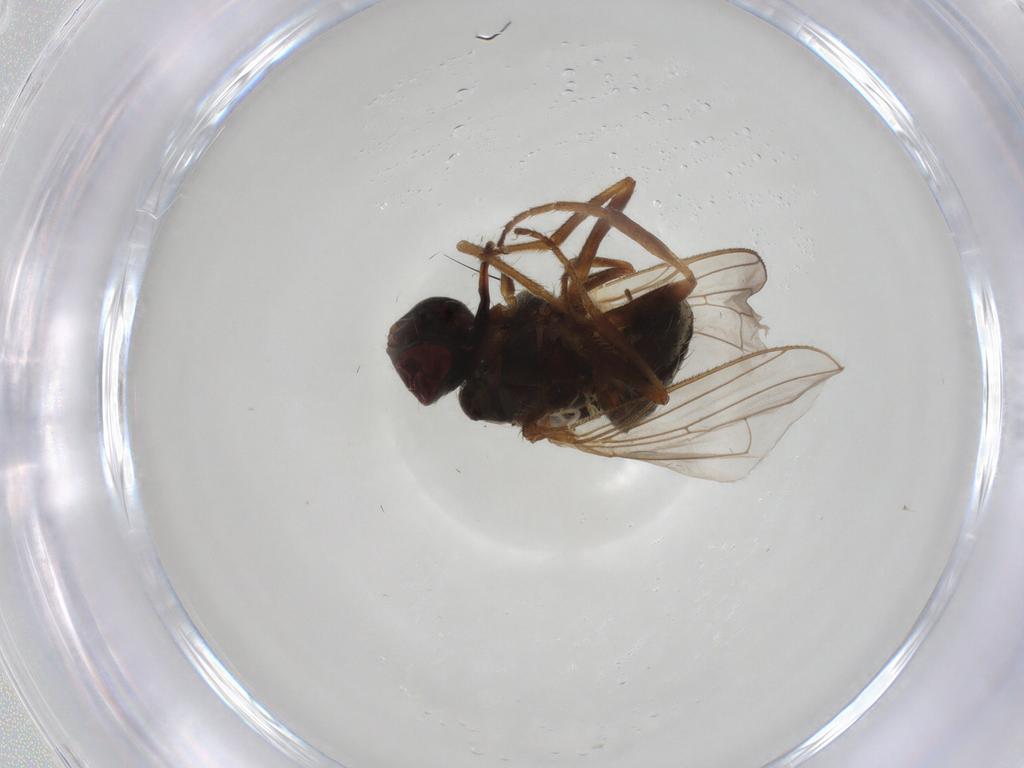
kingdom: Animalia
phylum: Arthropoda
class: Insecta
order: Diptera
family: Sciaridae
